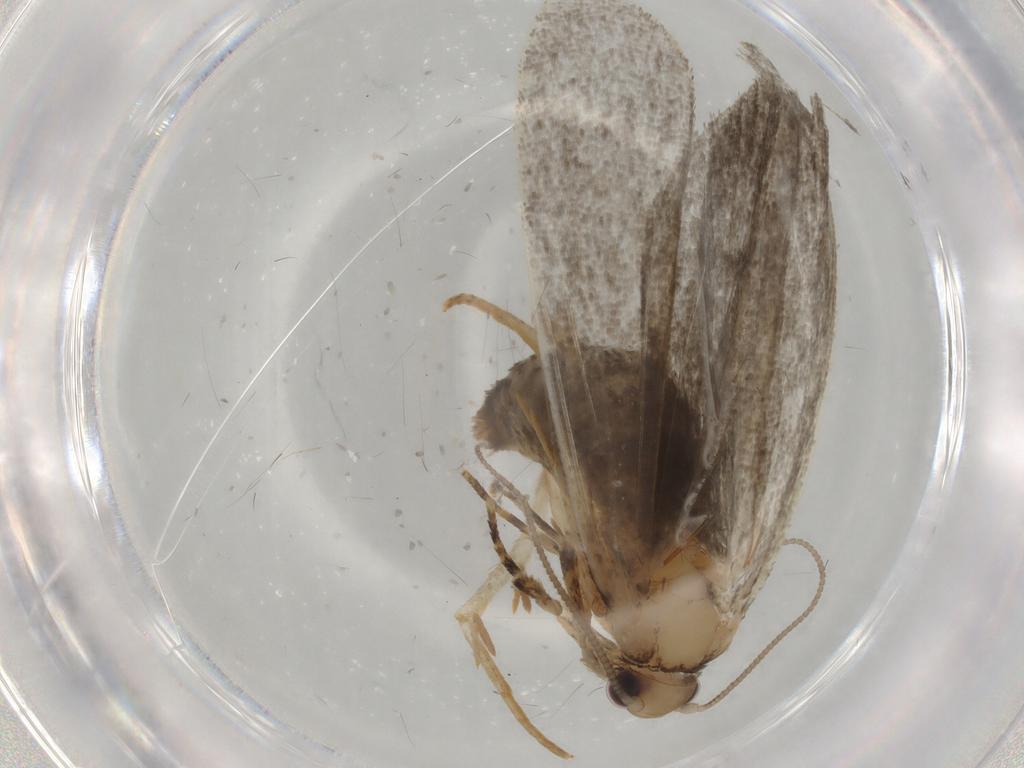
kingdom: Animalia
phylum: Arthropoda
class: Insecta
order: Lepidoptera
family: Tineidae
